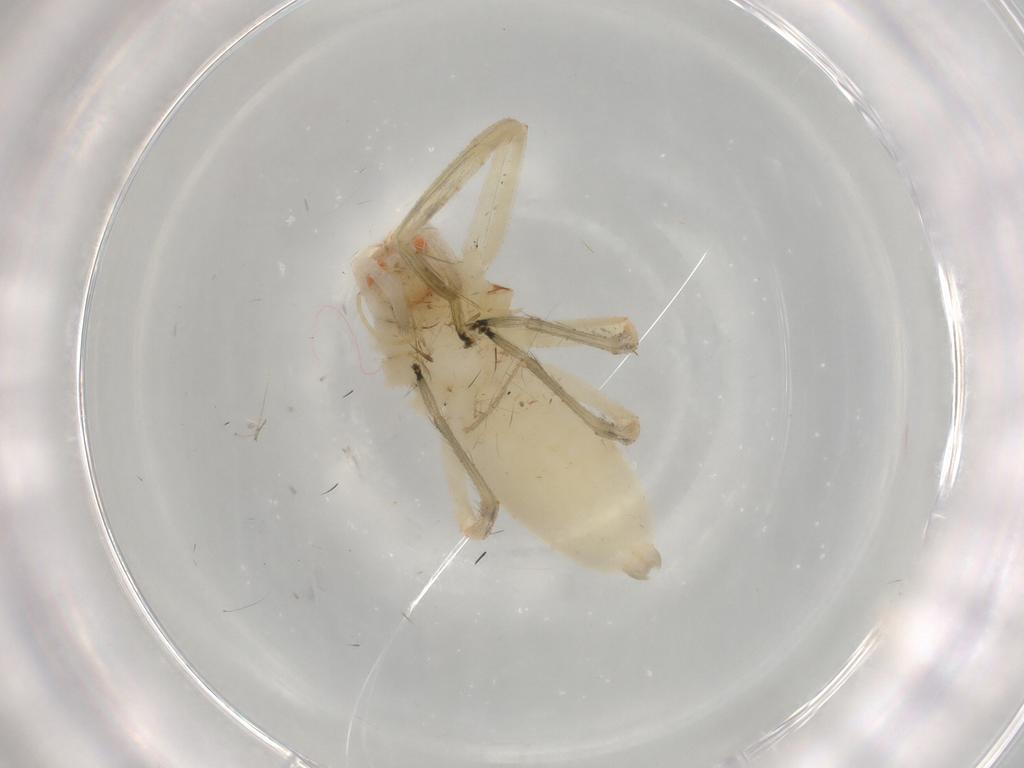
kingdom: Animalia
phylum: Arthropoda
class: Arachnida
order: Araneae
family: Salticidae
